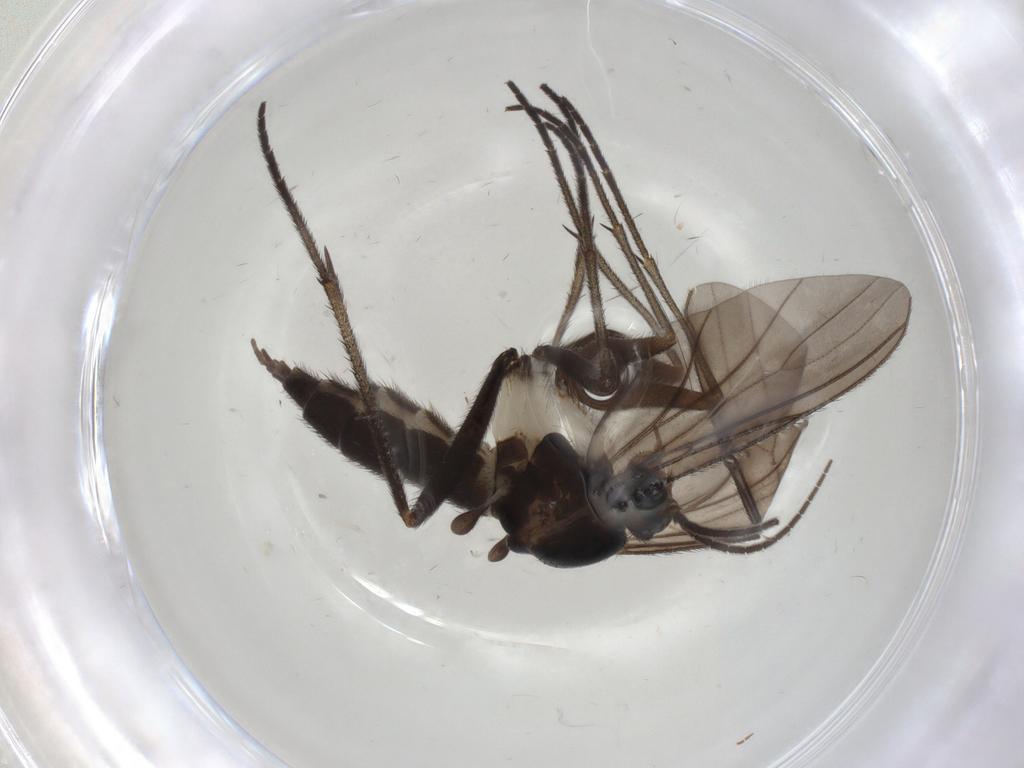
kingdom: Animalia
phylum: Arthropoda
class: Insecta
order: Diptera
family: Sciaridae
